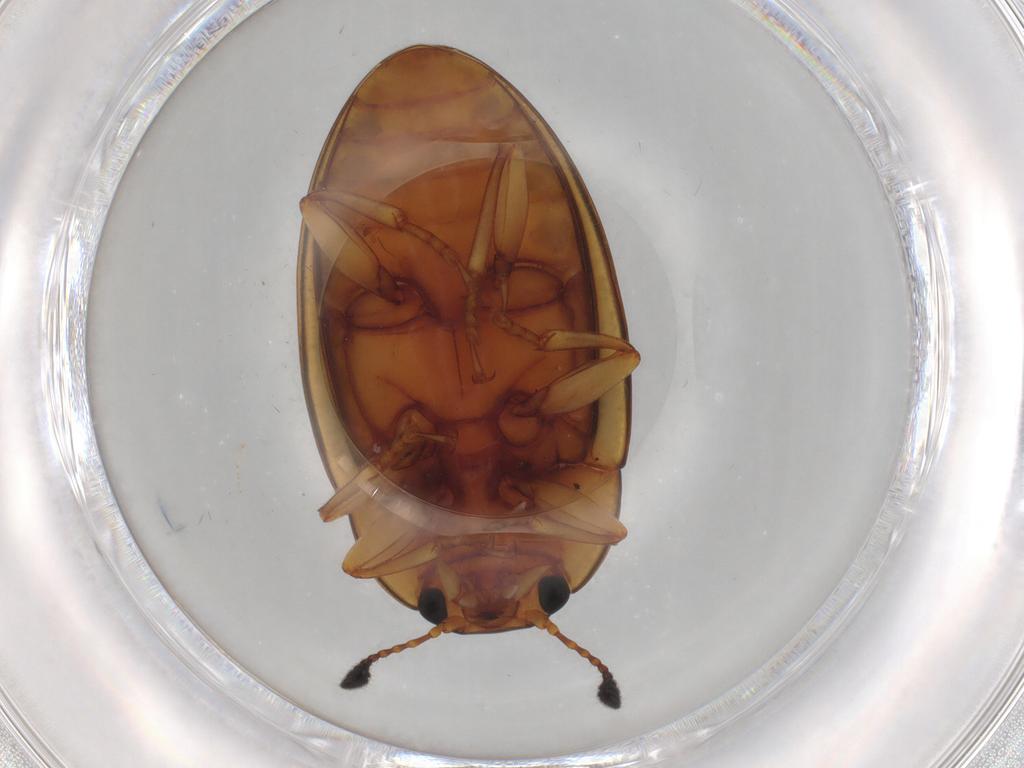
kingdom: Animalia
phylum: Arthropoda
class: Insecta
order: Coleoptera
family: Erotylidae
